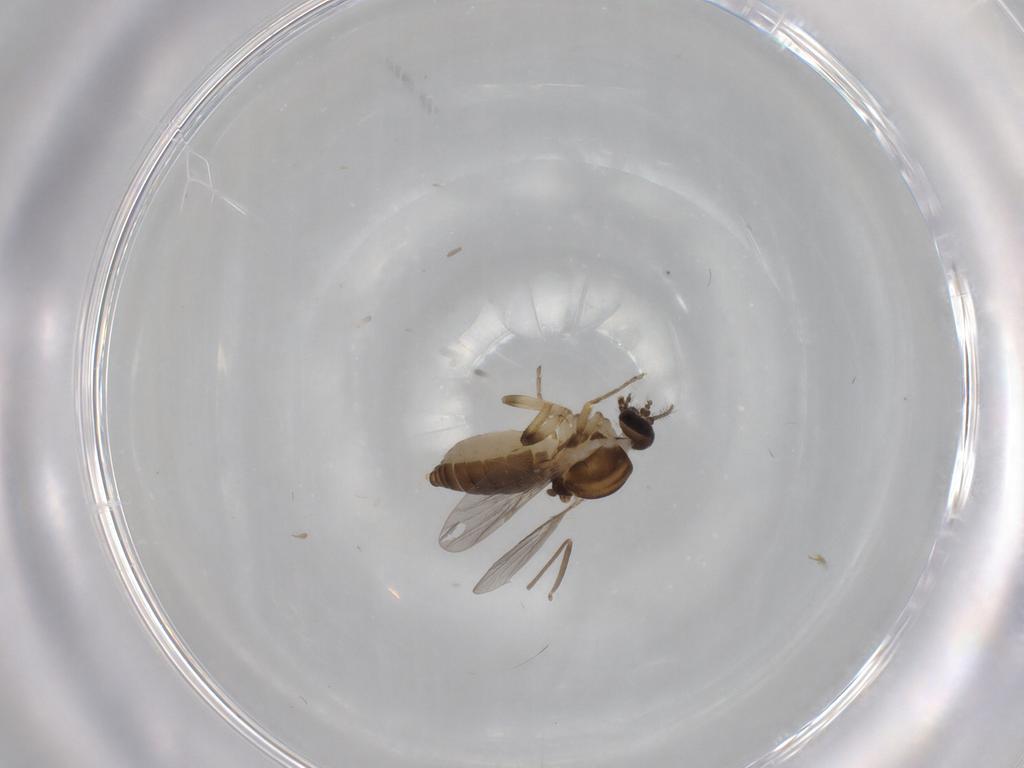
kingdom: Animalia
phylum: Arthropoda
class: Insecta
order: Diptera
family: Ceratopogonidae
